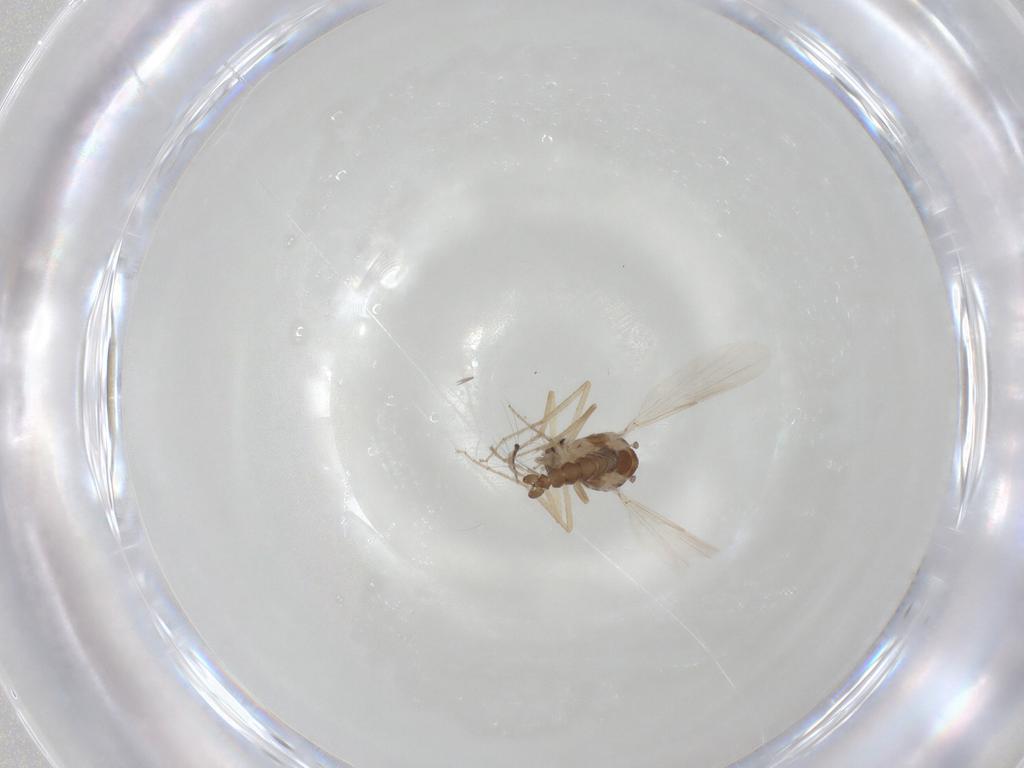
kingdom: Animalia
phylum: Arthropoda
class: Insecta
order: Diptera
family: Ceratopogonidae
